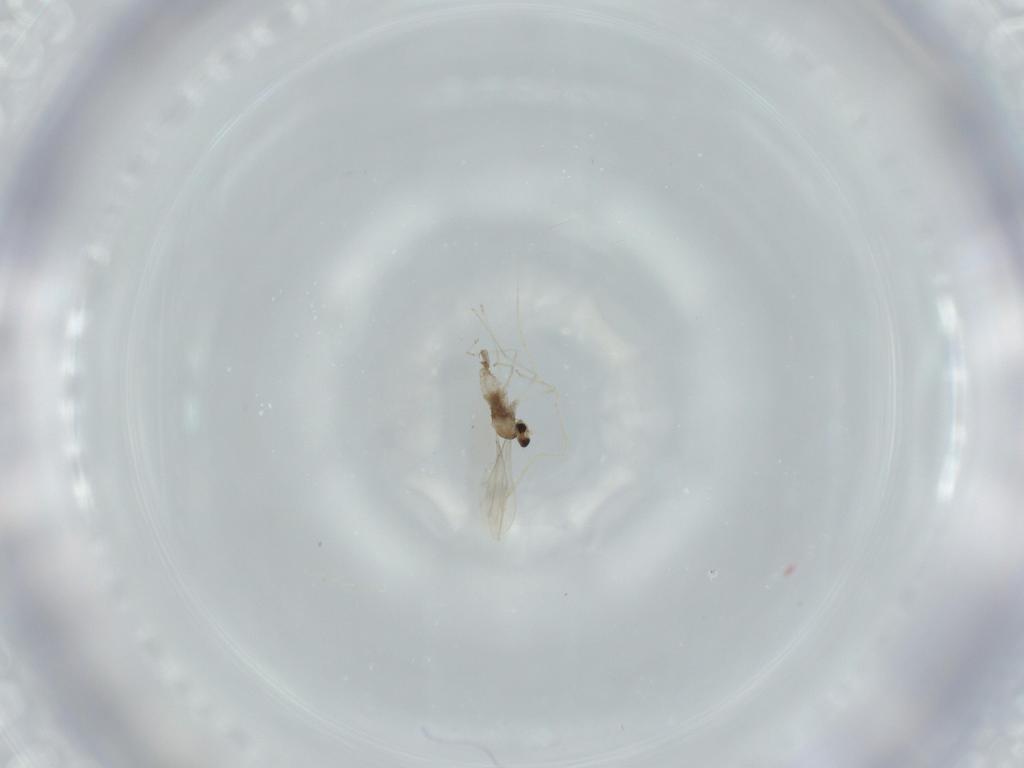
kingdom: Animalia
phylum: Arthropoda
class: Insecta
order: Diptera
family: Cecidomyiidae
